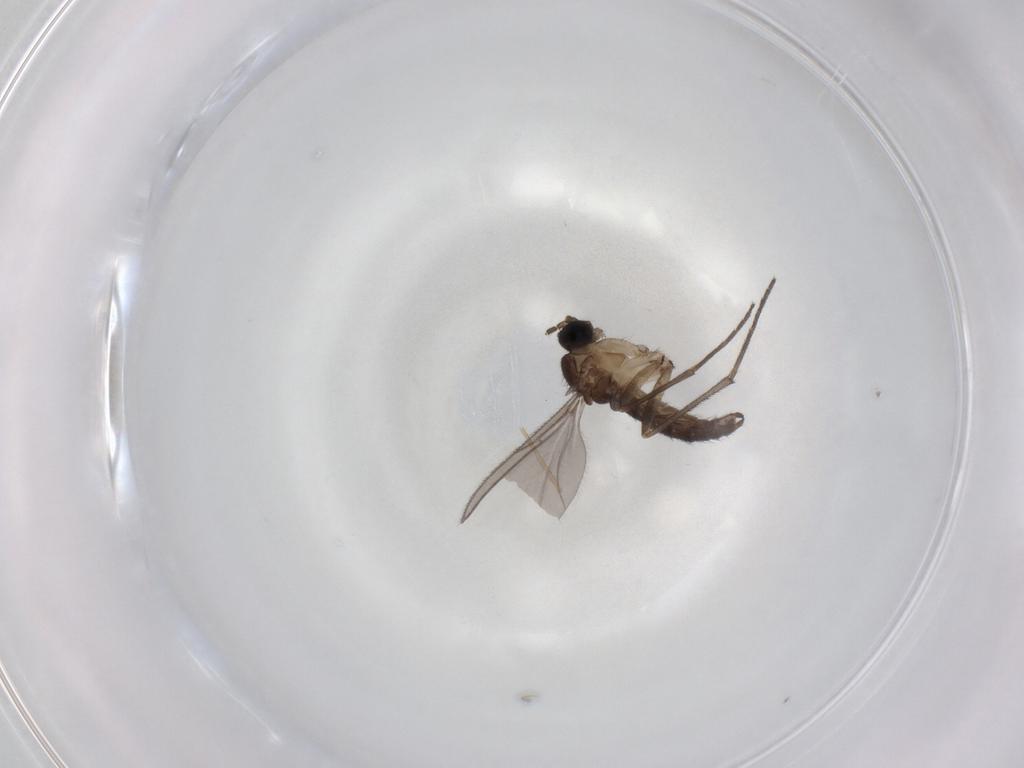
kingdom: Animalia
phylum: Arthropoda
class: Insecta
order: Diptera
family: Sciaridae
